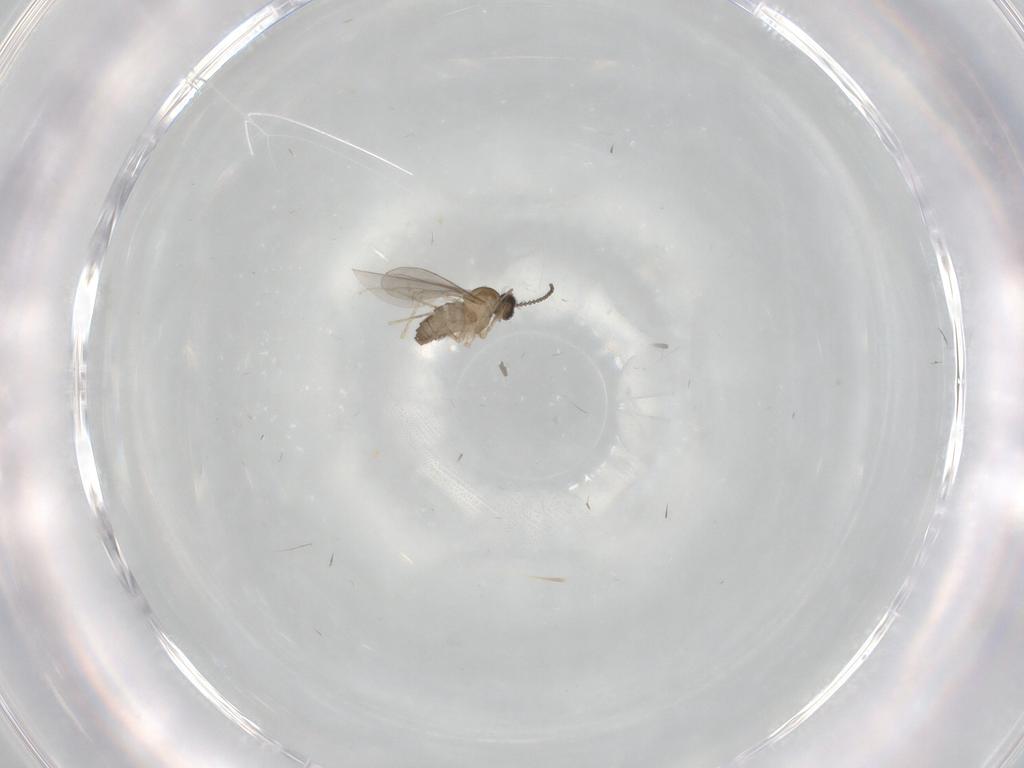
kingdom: Animalia
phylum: Arthropoda
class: Insecta
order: Diptera
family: Cecidomyiidae
